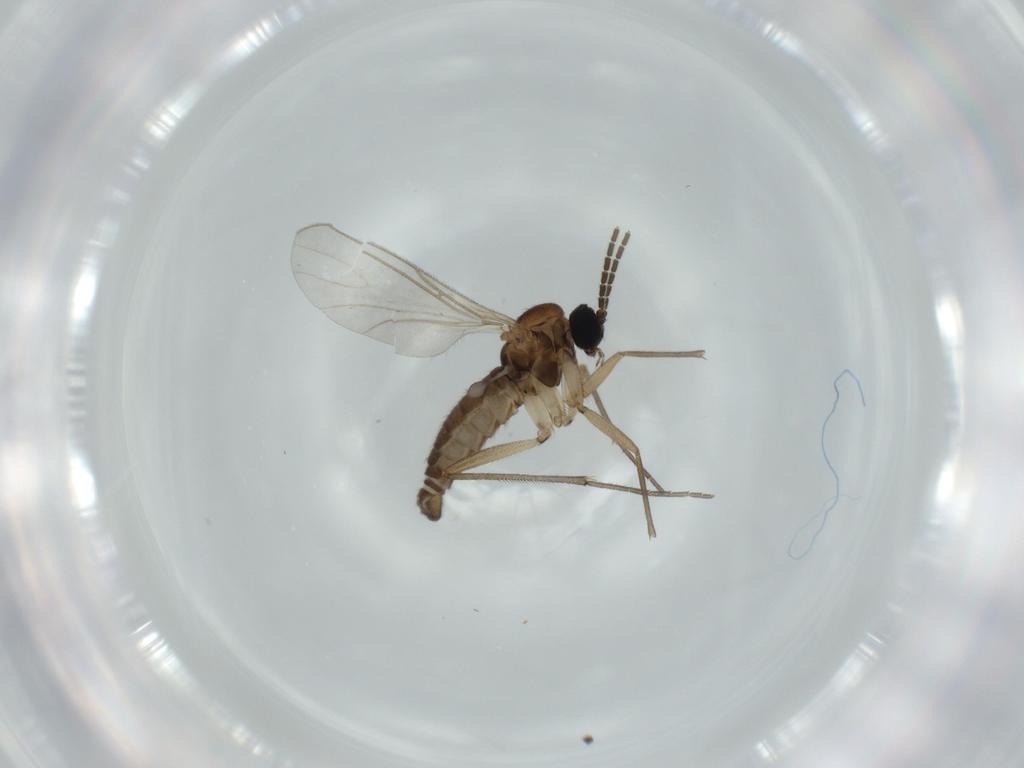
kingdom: Animalia
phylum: Arthropoda
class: Insecta
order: Diptera
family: Sciaridae
